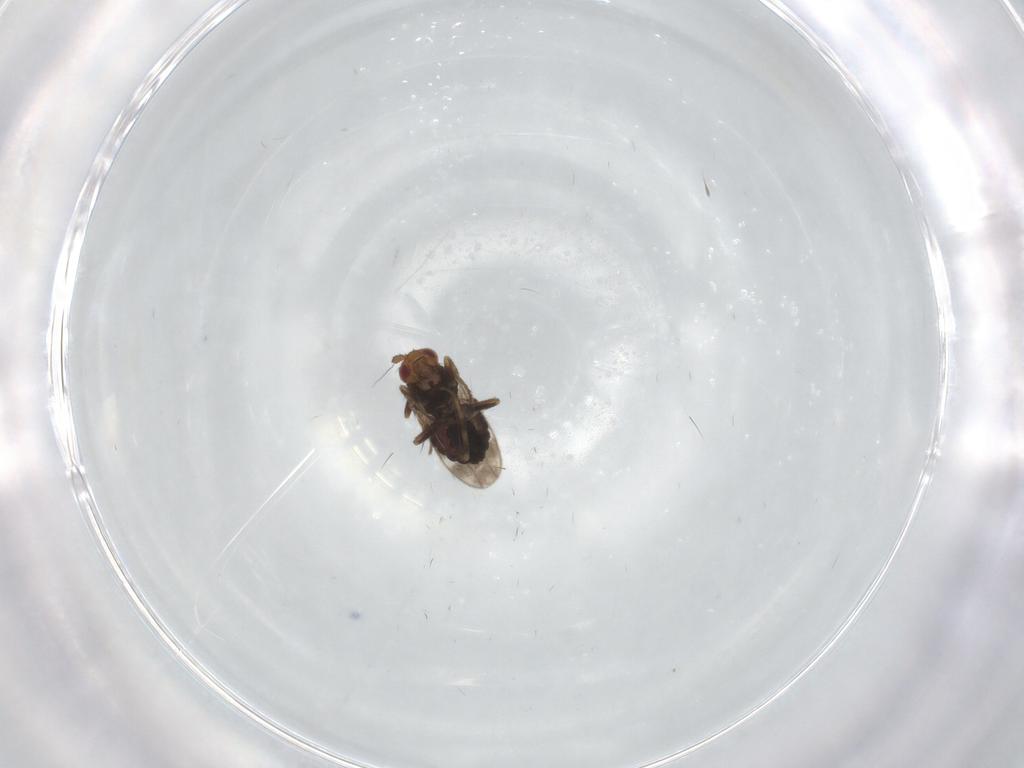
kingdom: Animalia
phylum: Arthropoda
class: Insecta
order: Diptera
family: Sphaeroceridae
